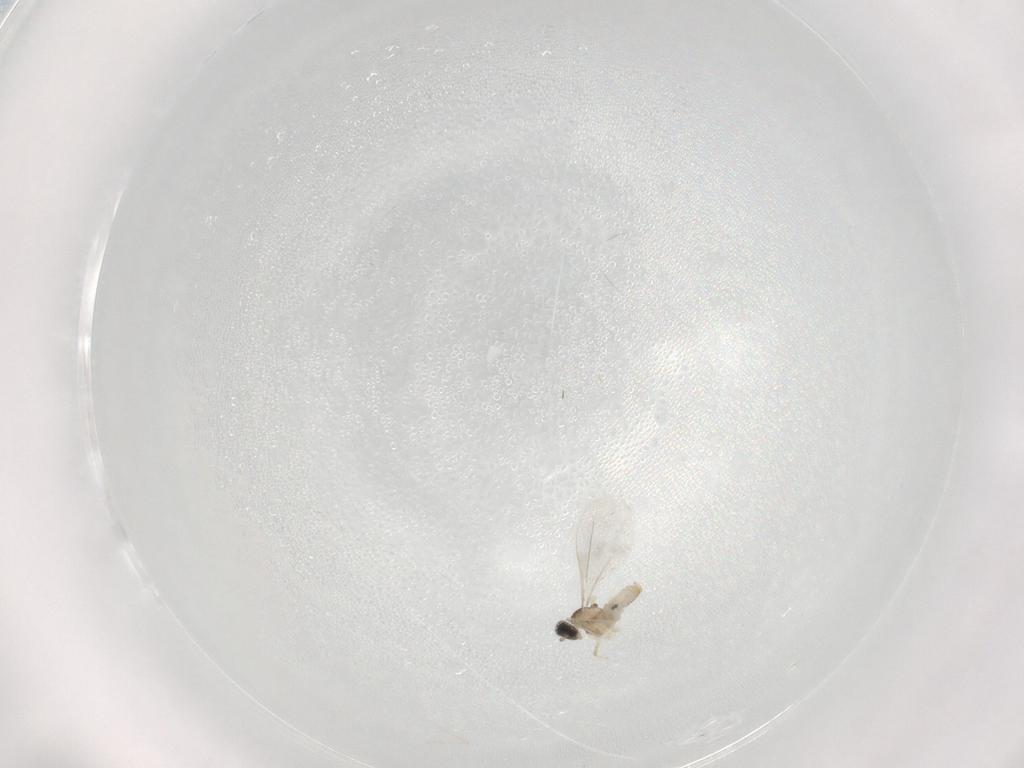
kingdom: Animalia
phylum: Arthropoda
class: Insecta
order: Diptera
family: Cecidomyiidae
